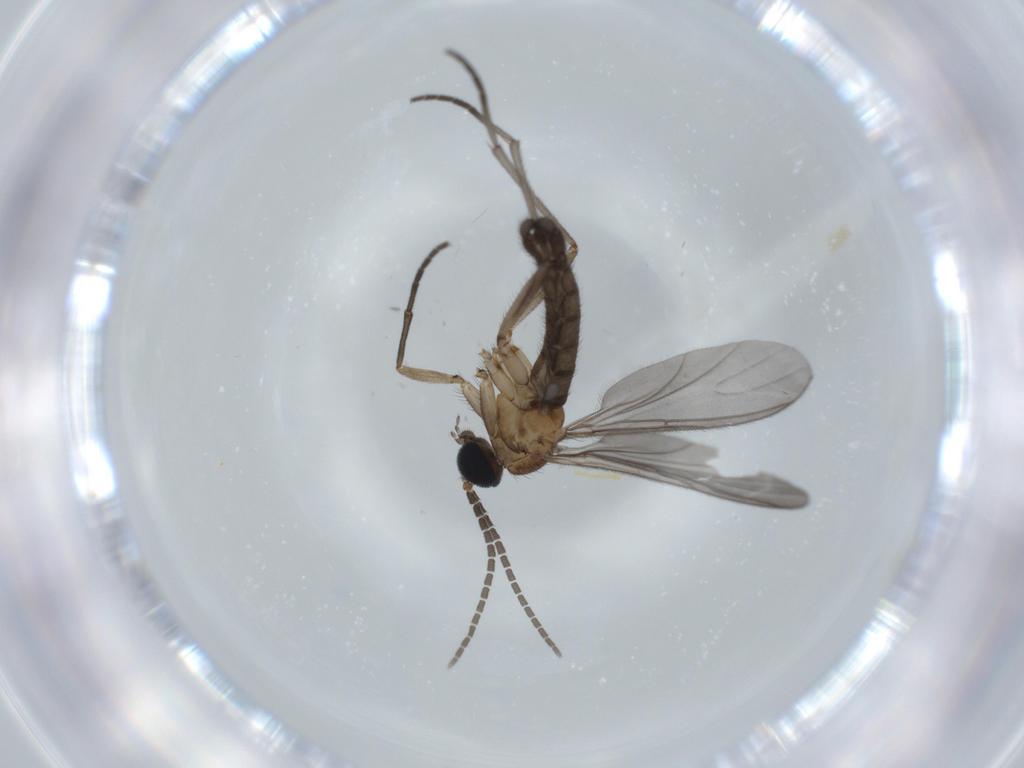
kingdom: Animalia
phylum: Arthropoda
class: Insecta
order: Diptera
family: Sciaridae
